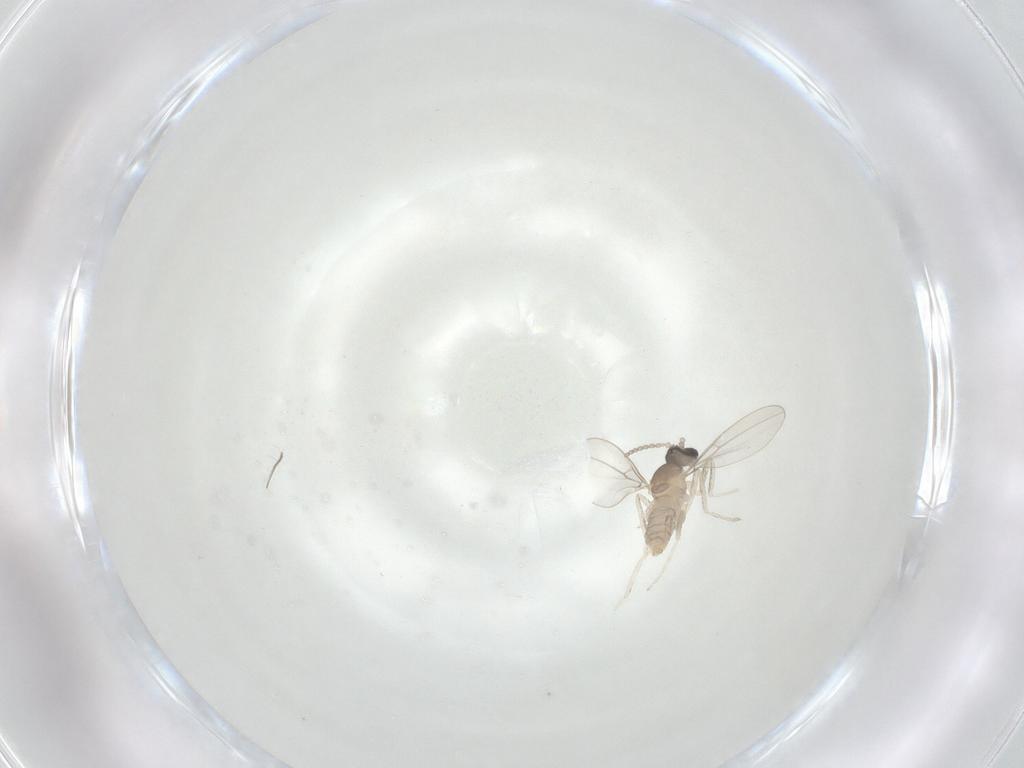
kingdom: Animalia
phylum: Arthropoda
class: Insecta
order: Diptera
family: Cecidomyiidae
